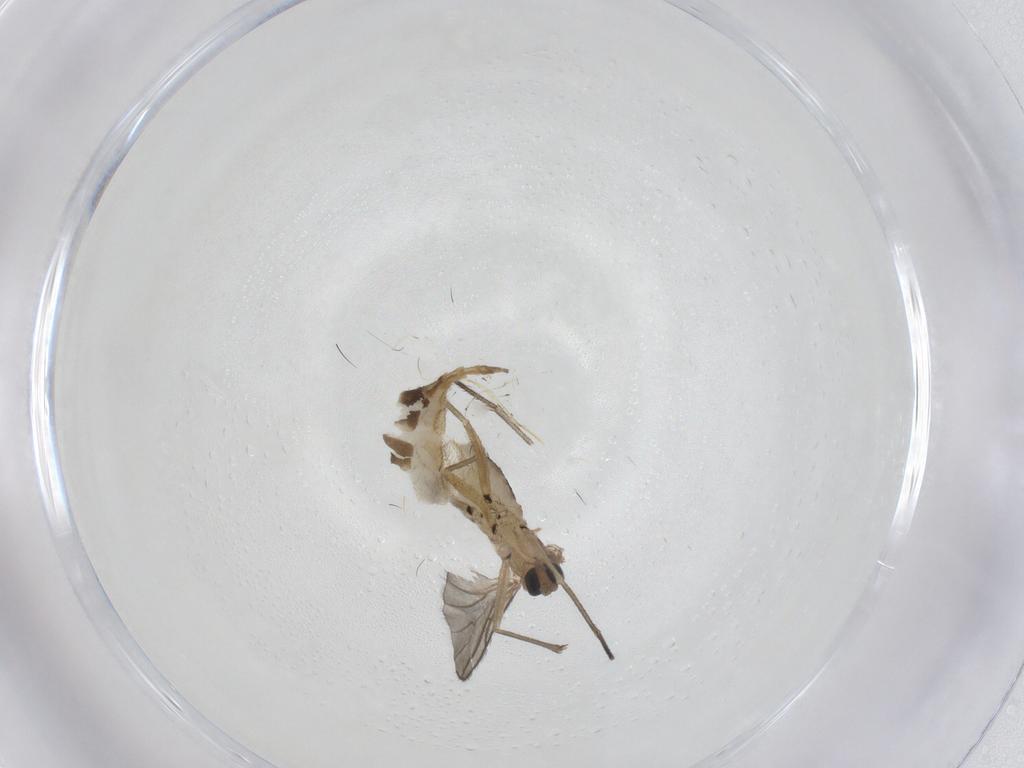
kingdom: Animalia
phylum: Arthropoda
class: Insecta
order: Diptera
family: Sciaridae
